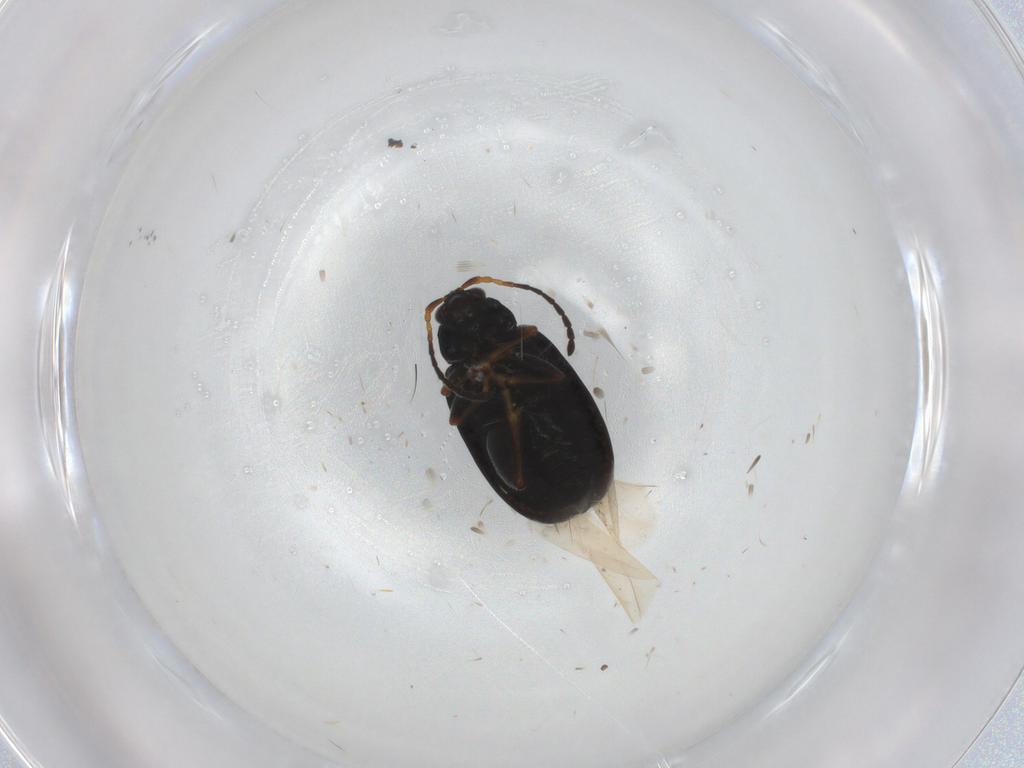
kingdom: Animalia
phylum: Arthropoda
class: Insecta
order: Coleoptera
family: Chrysomelidae
